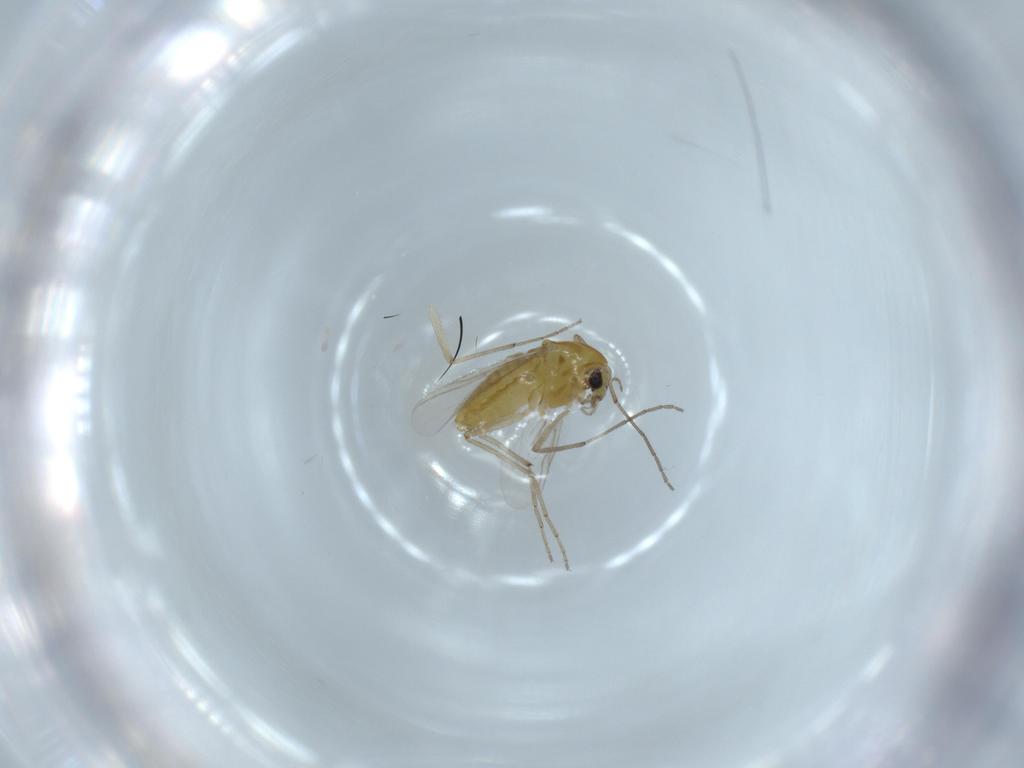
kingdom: Animalia
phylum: Arthropoda
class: Insecta
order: Diptera
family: Chironomidae
